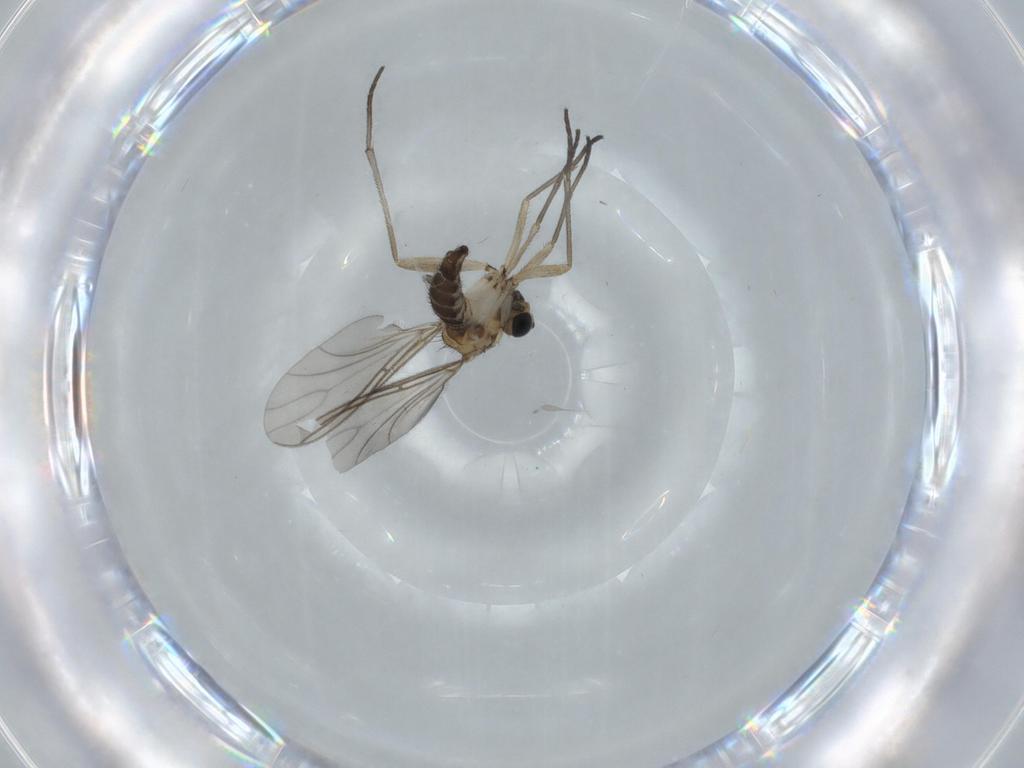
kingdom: Animalia
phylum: Arthropoda
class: Insecta
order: Diptera
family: Sciaridae
